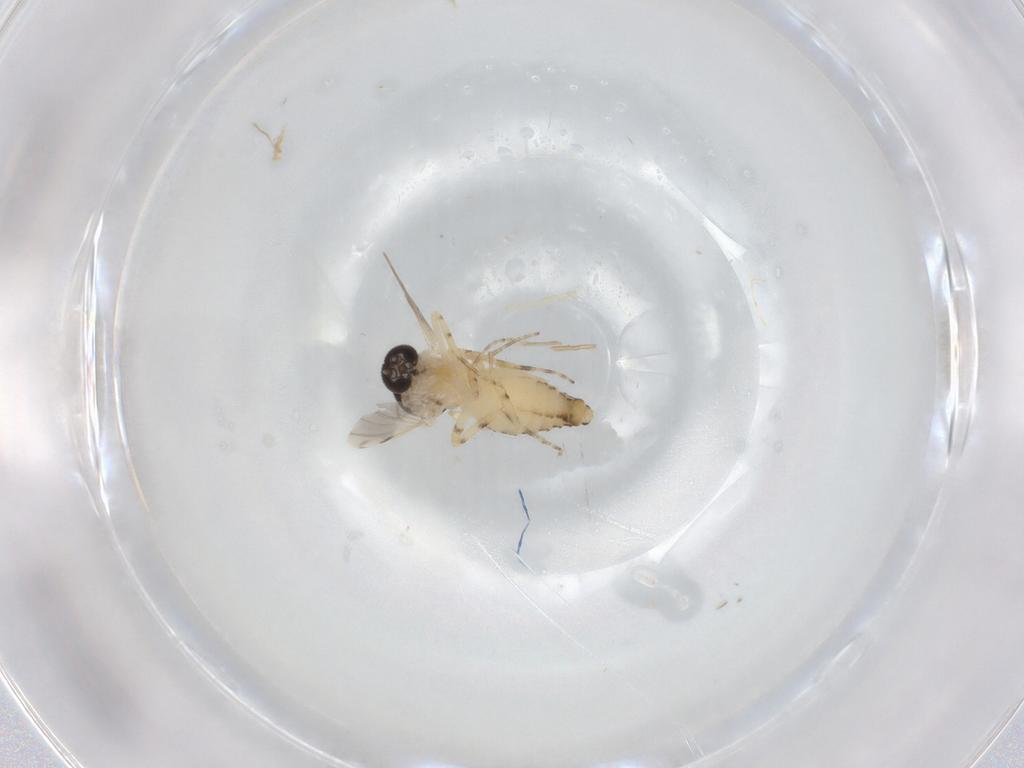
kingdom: Animalia
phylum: Arthropoda
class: Insecta
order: Diptera
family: Ceratopogonidae
